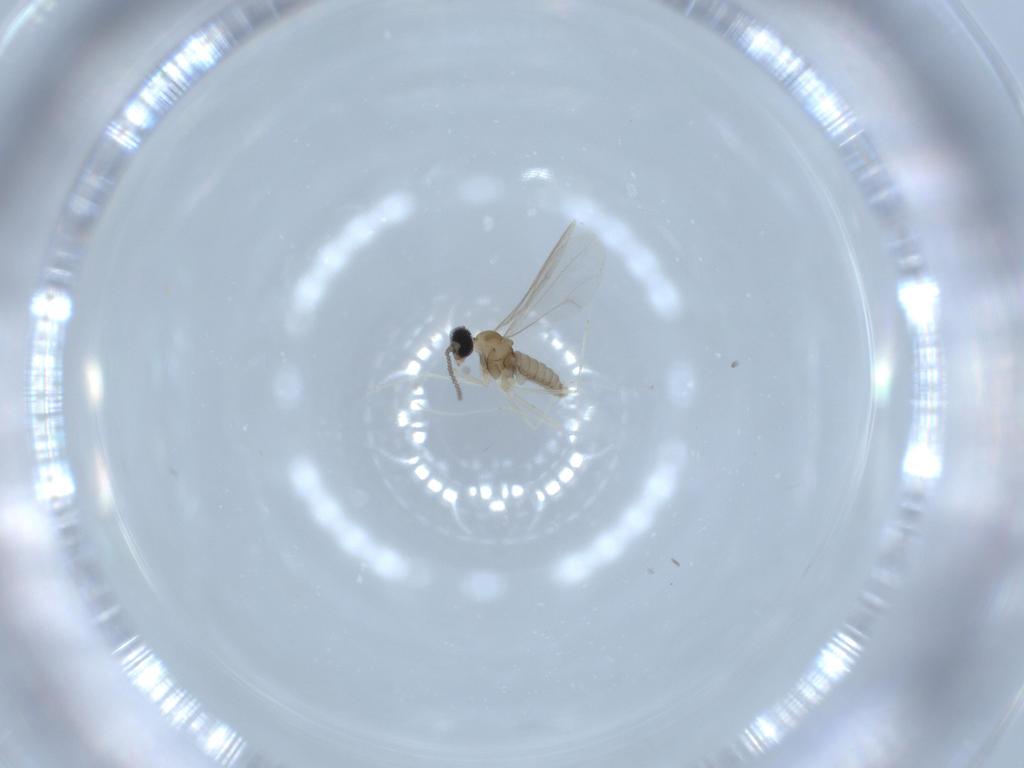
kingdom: Animalia
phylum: Arthropoda
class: Insecta
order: Diptera
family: Cecidomyiidae
